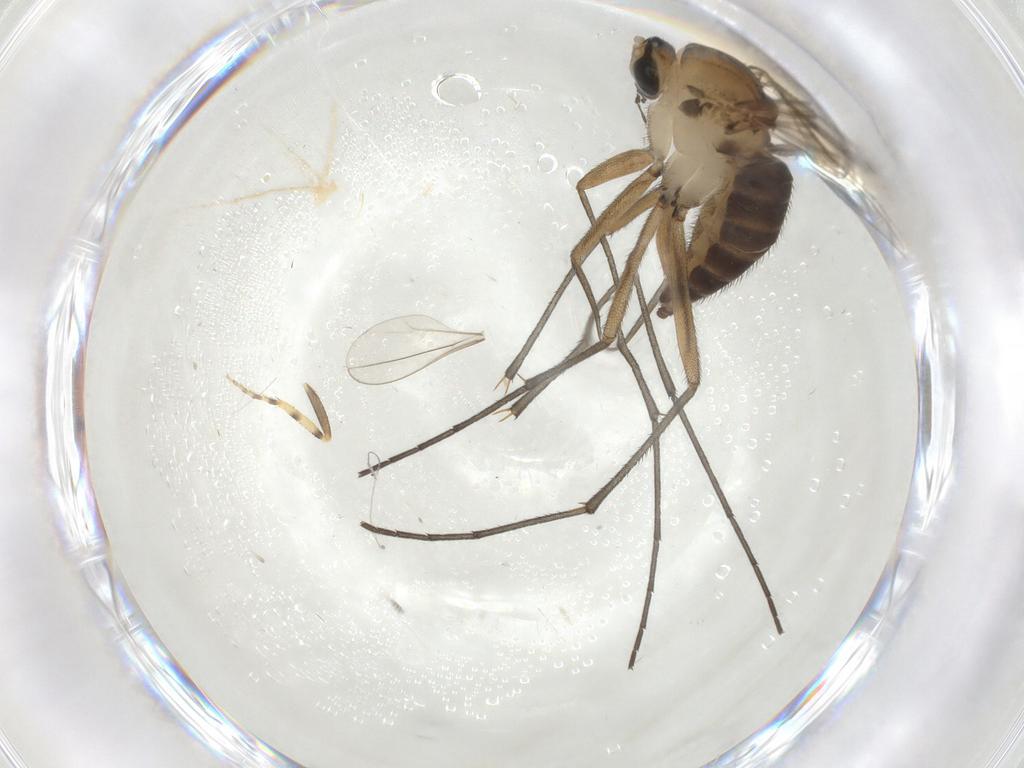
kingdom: Animalia
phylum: Arthropoda
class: Insecta
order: Diptera
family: Sciaridae
